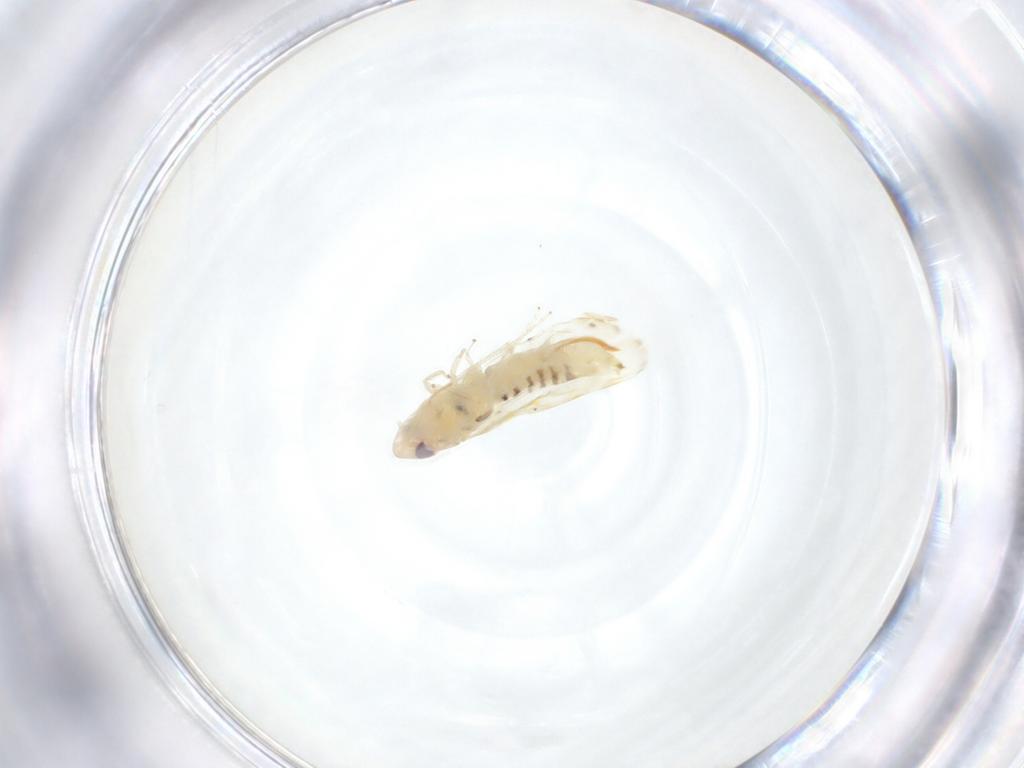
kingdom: Animalia
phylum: Arthropoda
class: Insecta
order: Hemiptera
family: Cicadellidae
